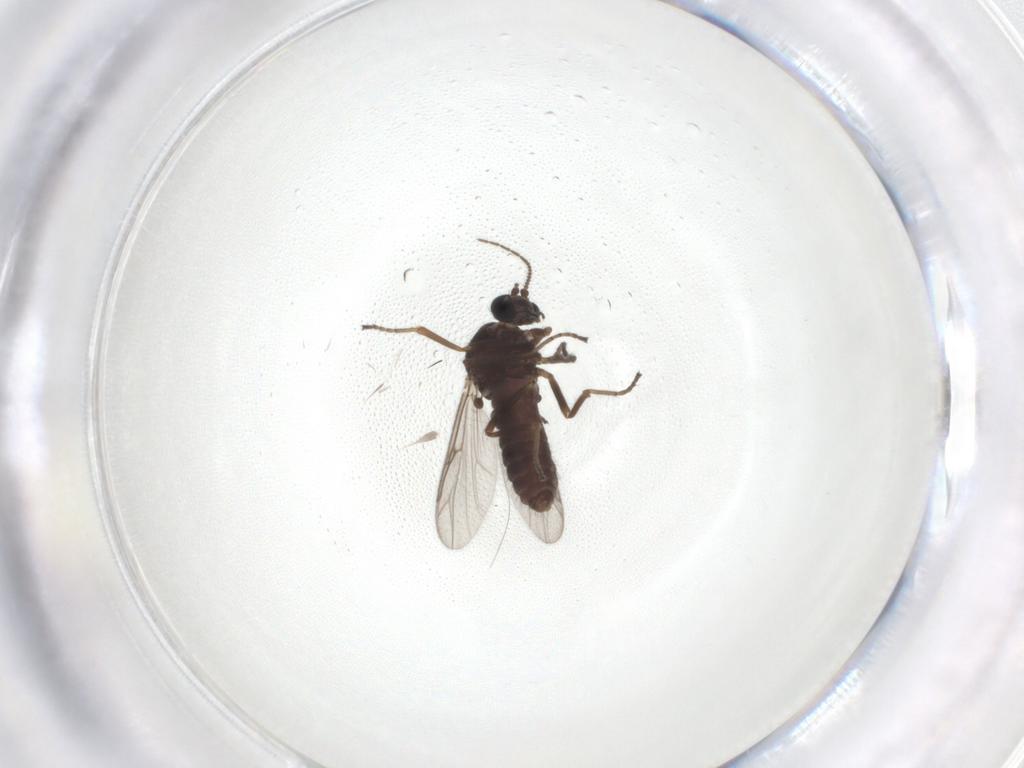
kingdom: Animalia
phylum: Arthropoda
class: Insecta
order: Diptera
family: Ceratopogonidae
